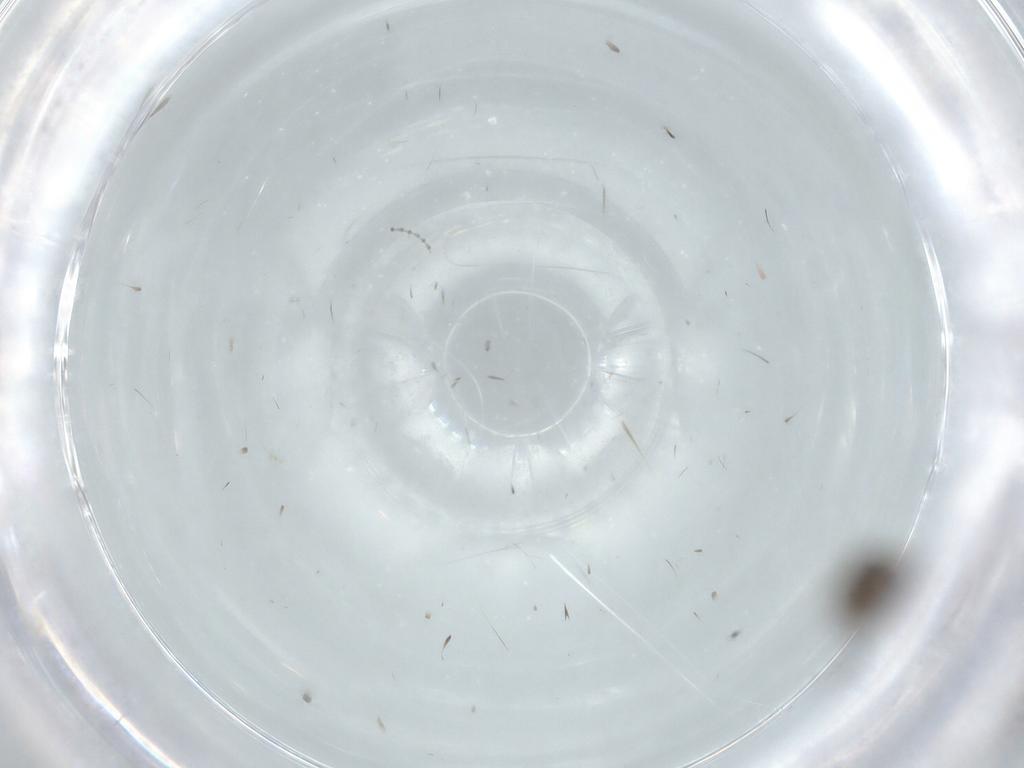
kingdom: Animalia
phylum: Arthropoda
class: Insecta
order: Hymenoptera
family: Scelionidae
